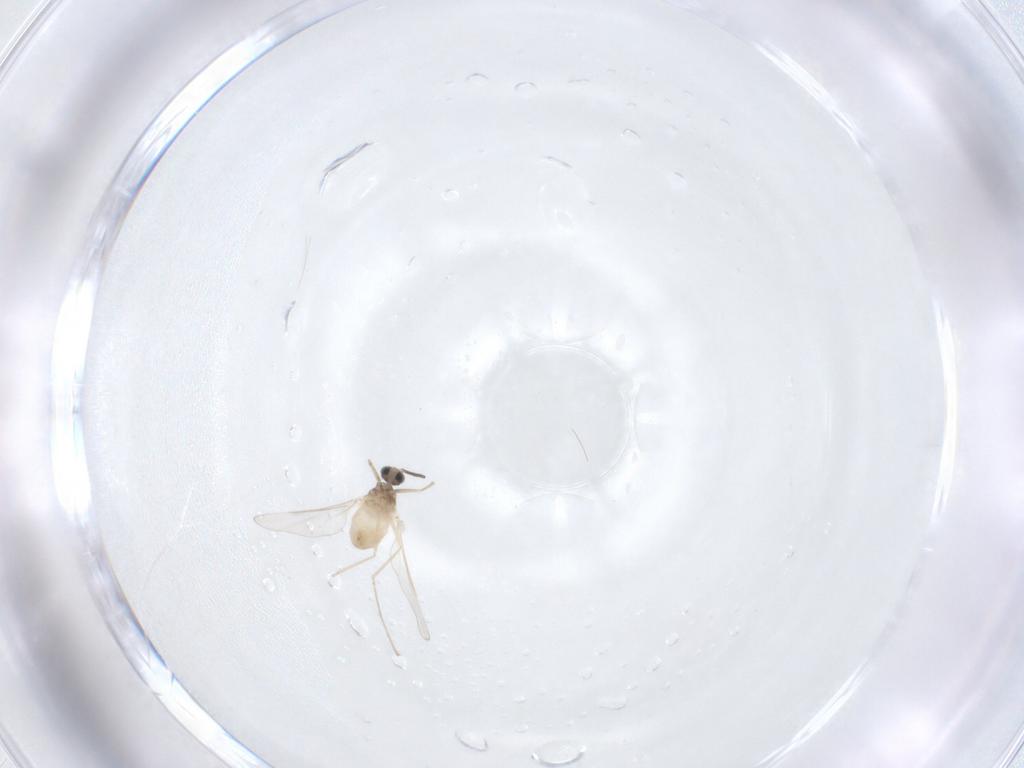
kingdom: Animalia
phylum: Arthropoda
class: Insecta
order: Diptera
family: Cecidomyiidae
